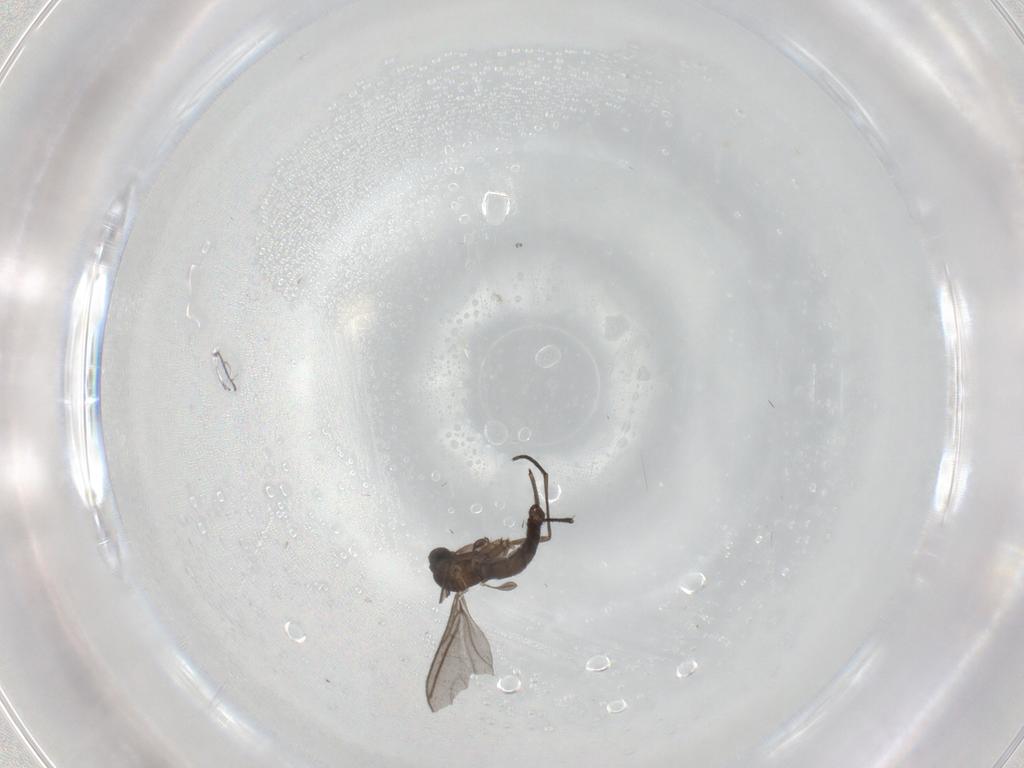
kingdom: Animalia
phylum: Arthropoda
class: Insecta
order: Diptera
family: Sciaridae
